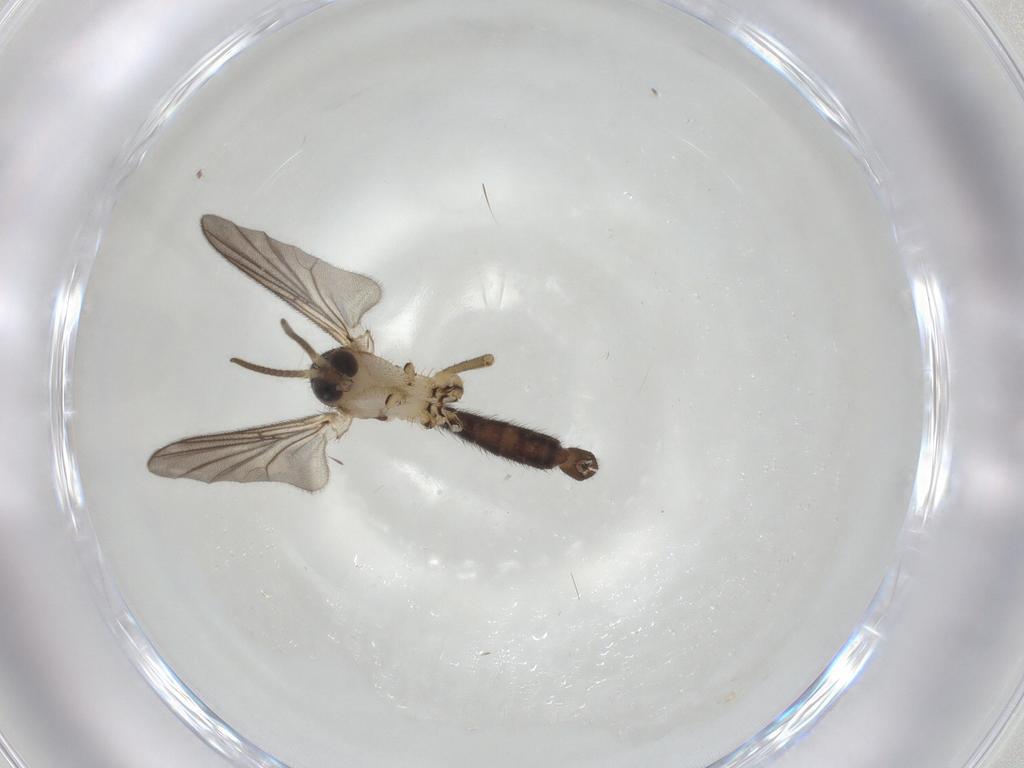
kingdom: Animalia
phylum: Arthropoda
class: Insecta
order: Diptera
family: Mycetophilidae
